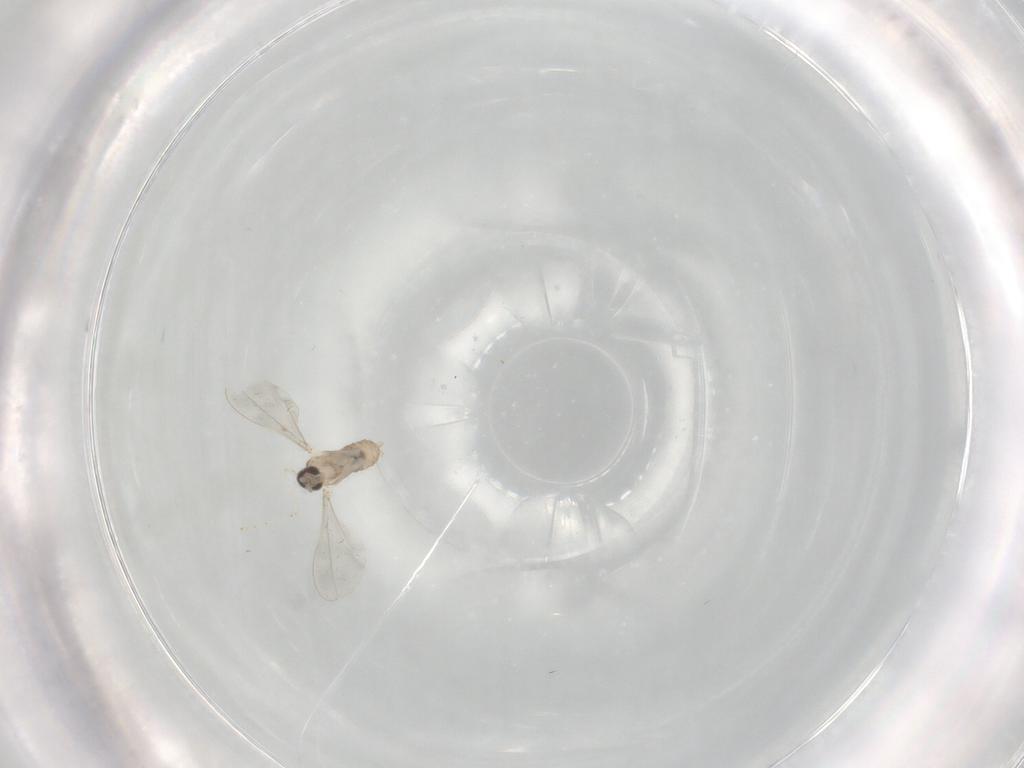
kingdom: Animalia
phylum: Arthropoda
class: Insecta
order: Diptera
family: Cecidomyiidae
